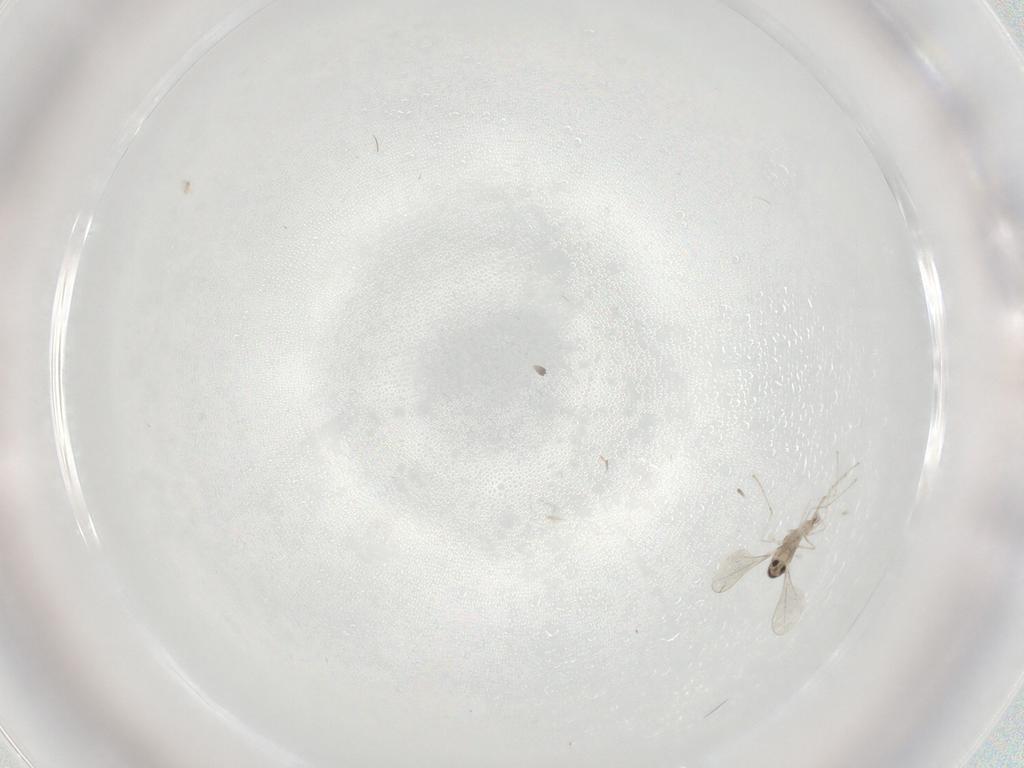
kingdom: Animalia
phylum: Arthropoda
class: Insecta
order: Diptera
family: Cecidomyiidae
